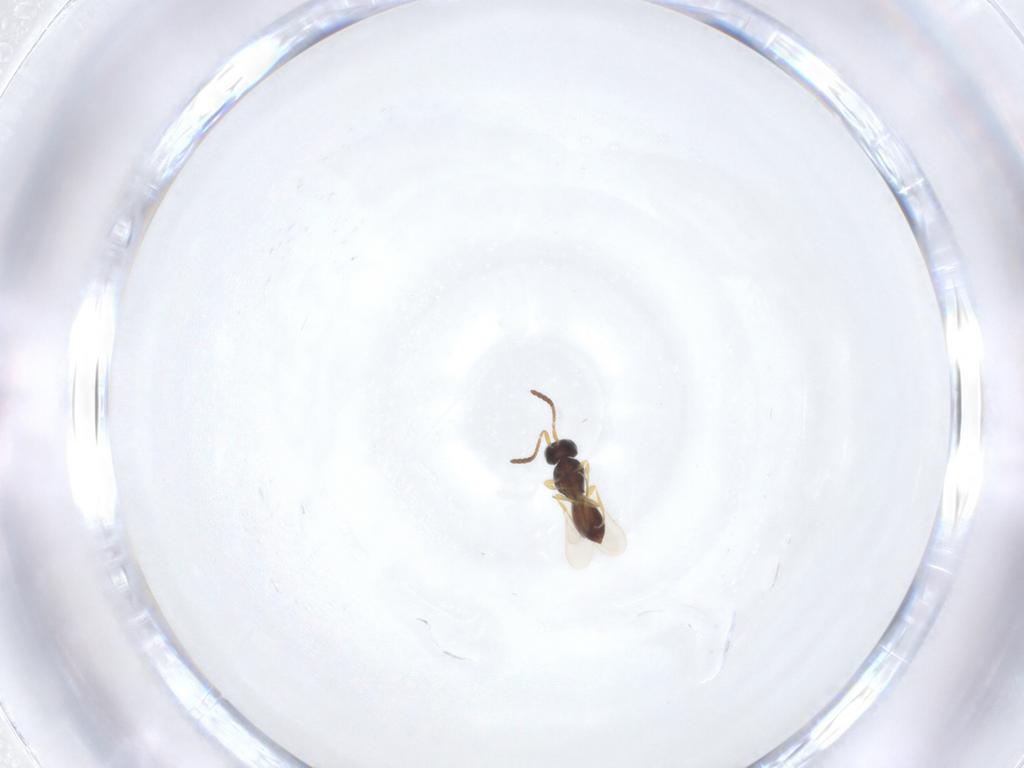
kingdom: Animalia
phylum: Arthropoda
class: Insecta
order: Hymenoptera
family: Scelionidae
